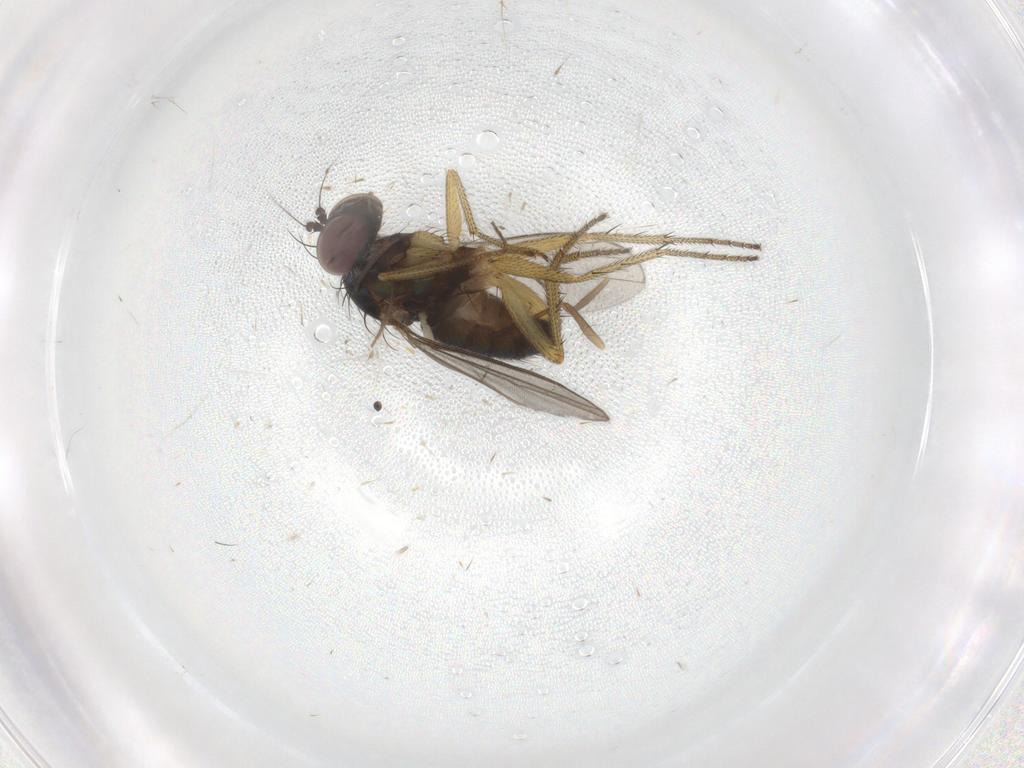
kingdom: Animalia
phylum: Arthropoda
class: Insecta
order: Diptera
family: Chironomidae
